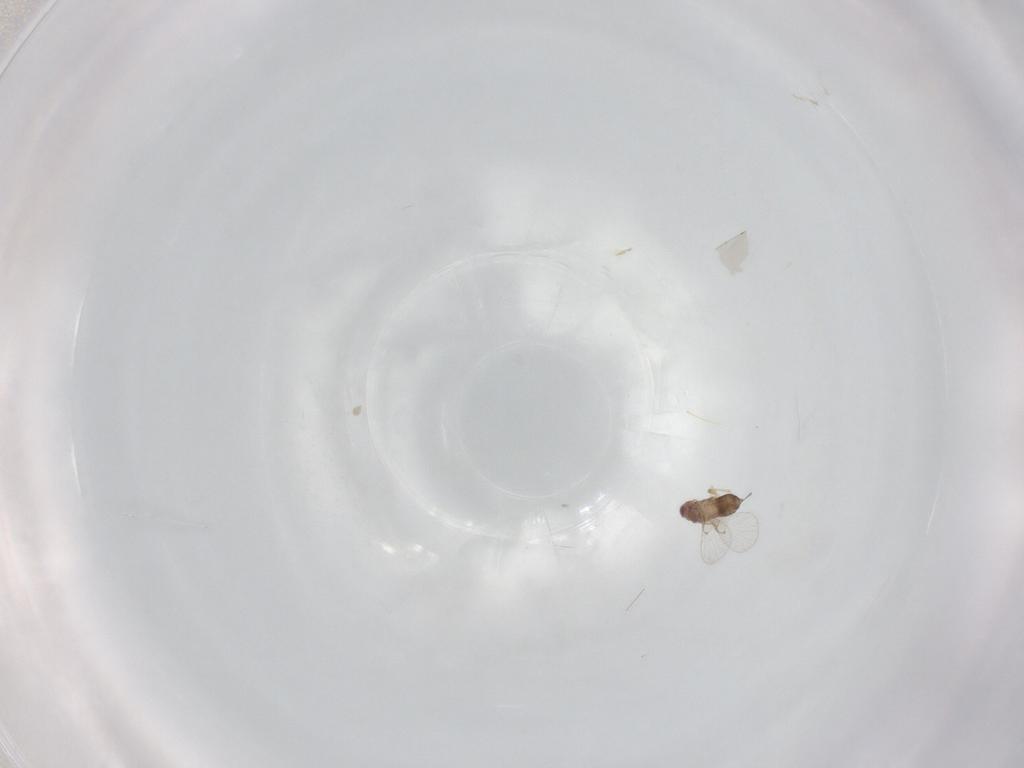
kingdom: Animalia
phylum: Arthropoda
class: Insecta
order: Hymenoptera
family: Trichogrammatidae
